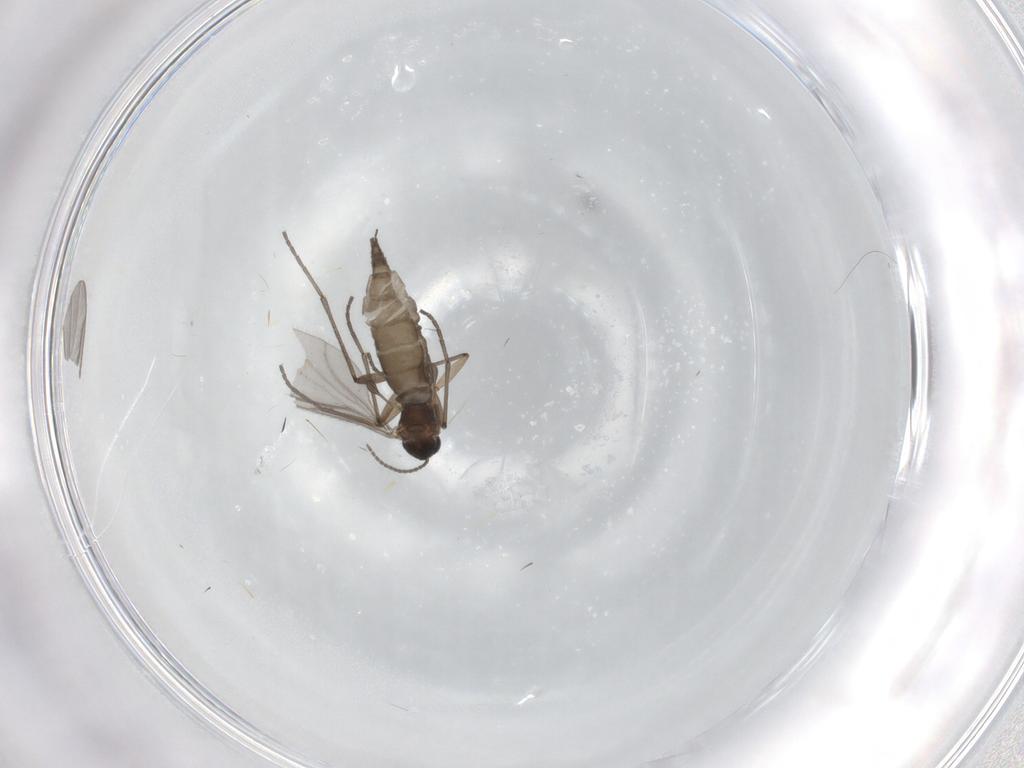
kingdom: Animalia
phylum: Arthropoda
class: Insecta
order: Diptera
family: Sciaridae
